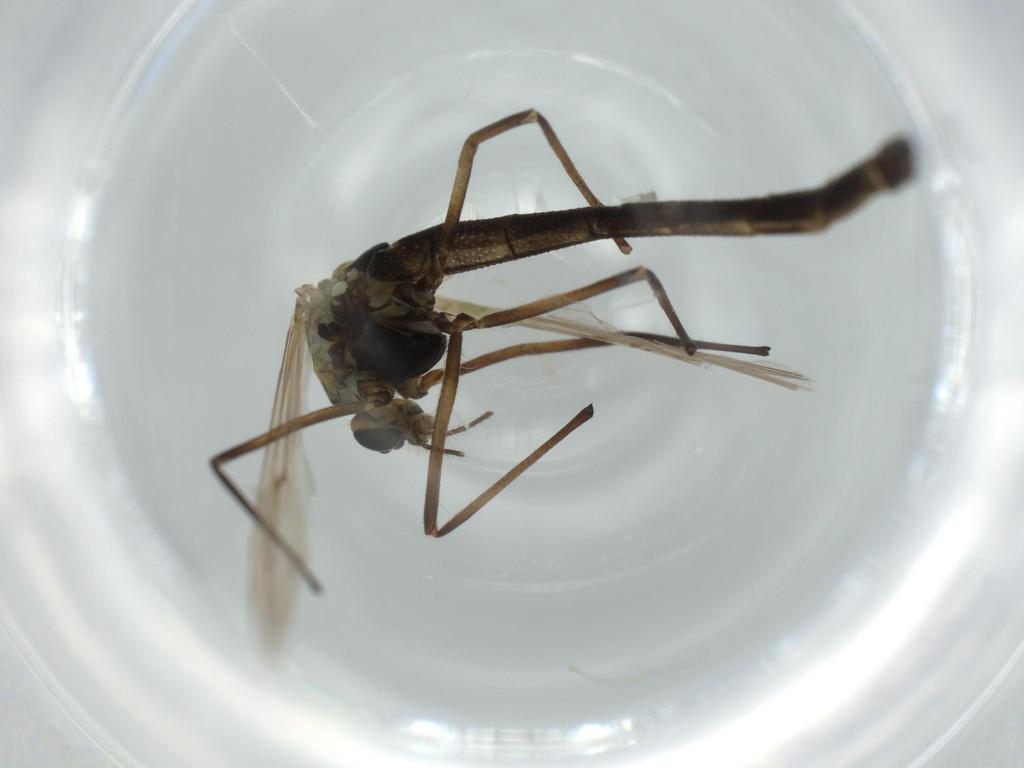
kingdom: Animalia
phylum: Arthropoda
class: Insecta
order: Diptera
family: Chironomidae
